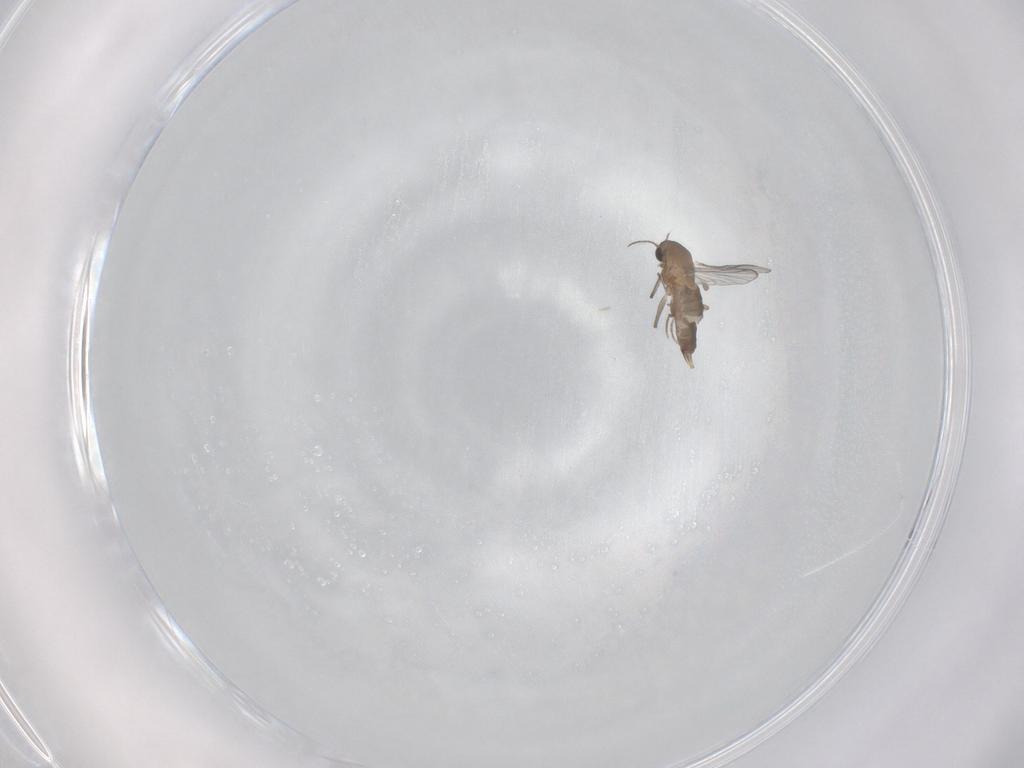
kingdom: Animalia
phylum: Arthropoda
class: Insecta
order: Diptera
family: Chironomidae
